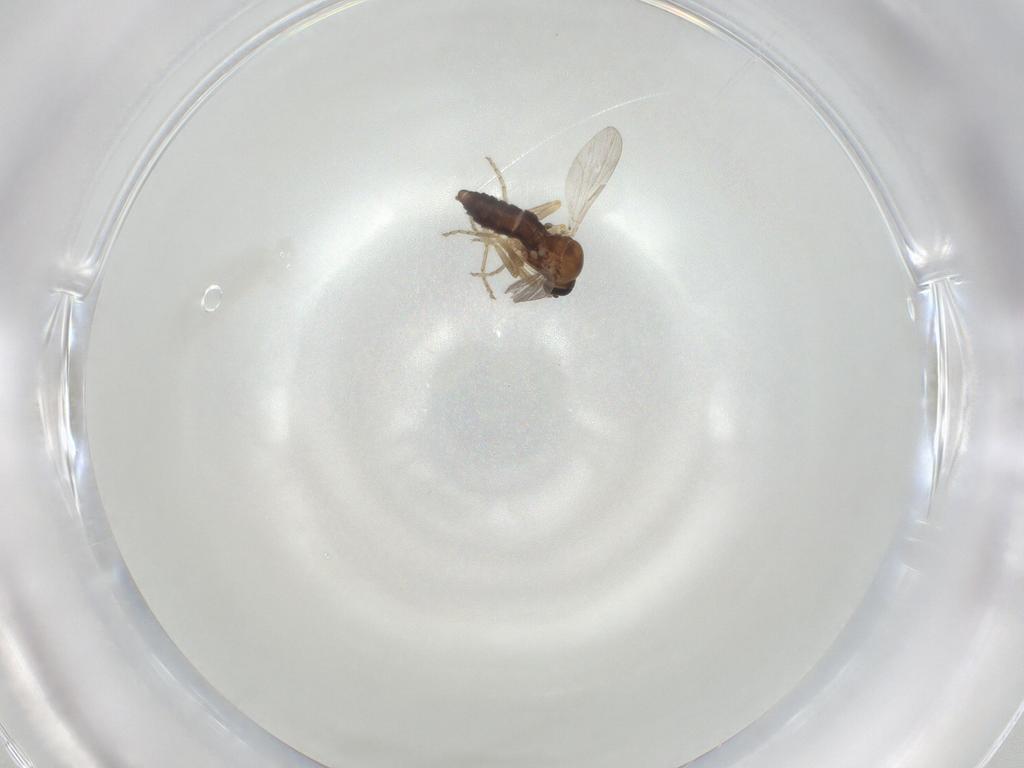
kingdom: Animalia
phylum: Arthropoda
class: Insecta
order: Diptera
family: Ceratopogonidae
